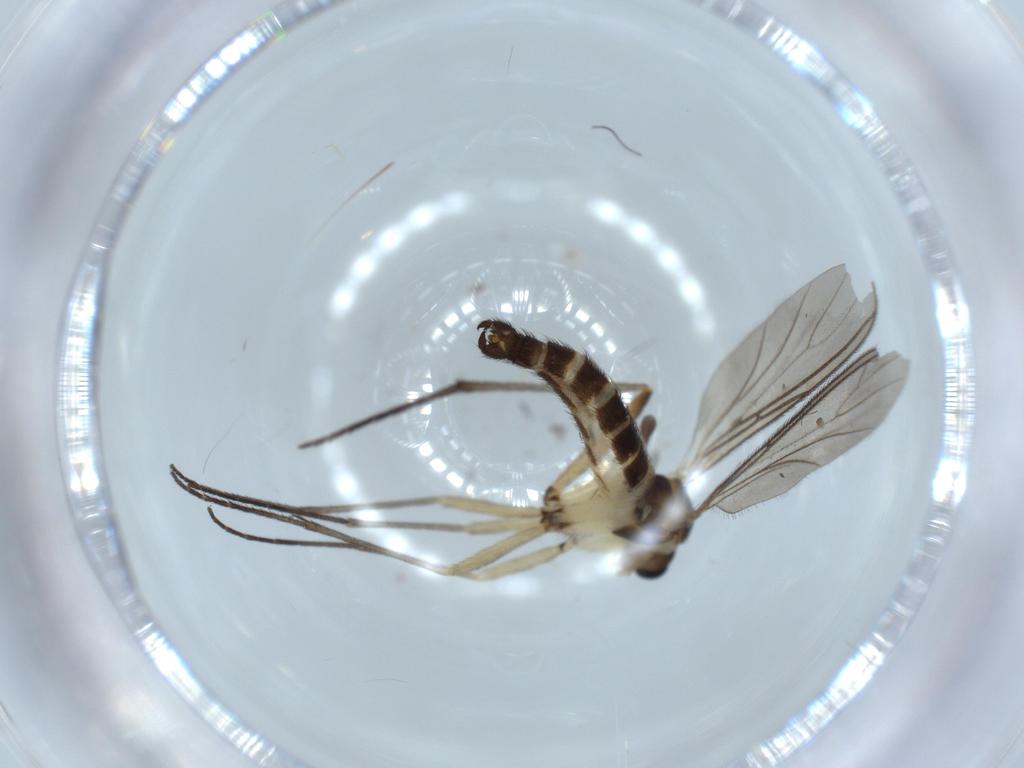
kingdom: Animalia
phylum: Arthropoda
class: Insecta
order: Diptera
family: Sciaridae
